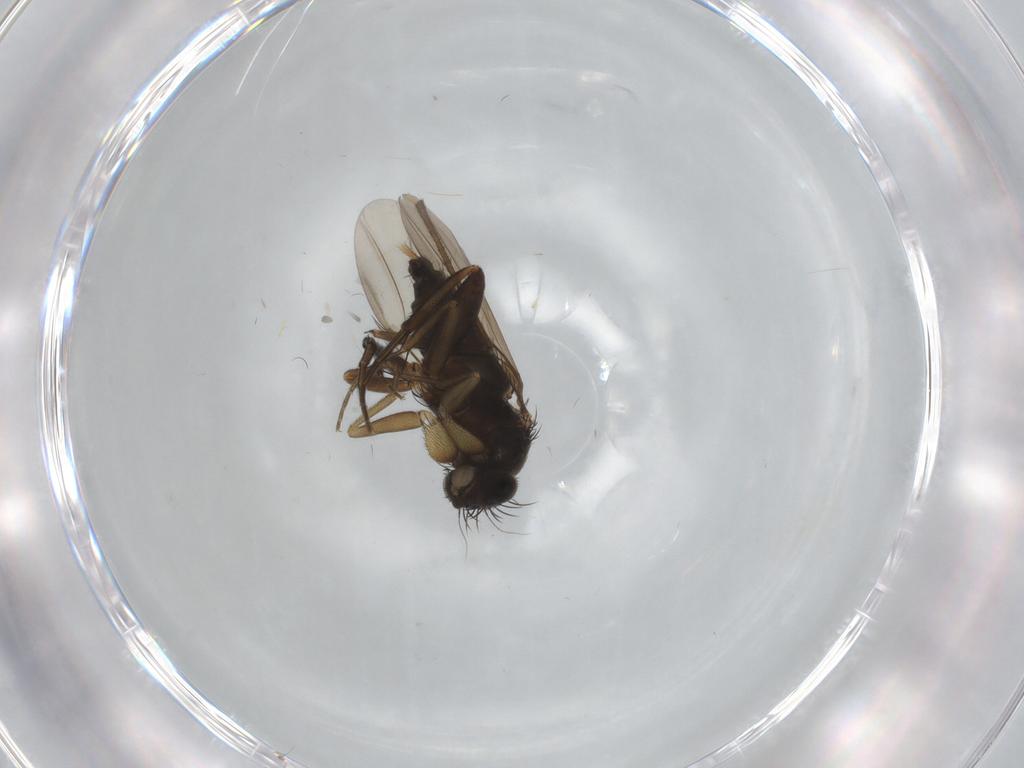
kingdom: Animalia
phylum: Arthropoda
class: Insecta
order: Diptera
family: Phoridae
